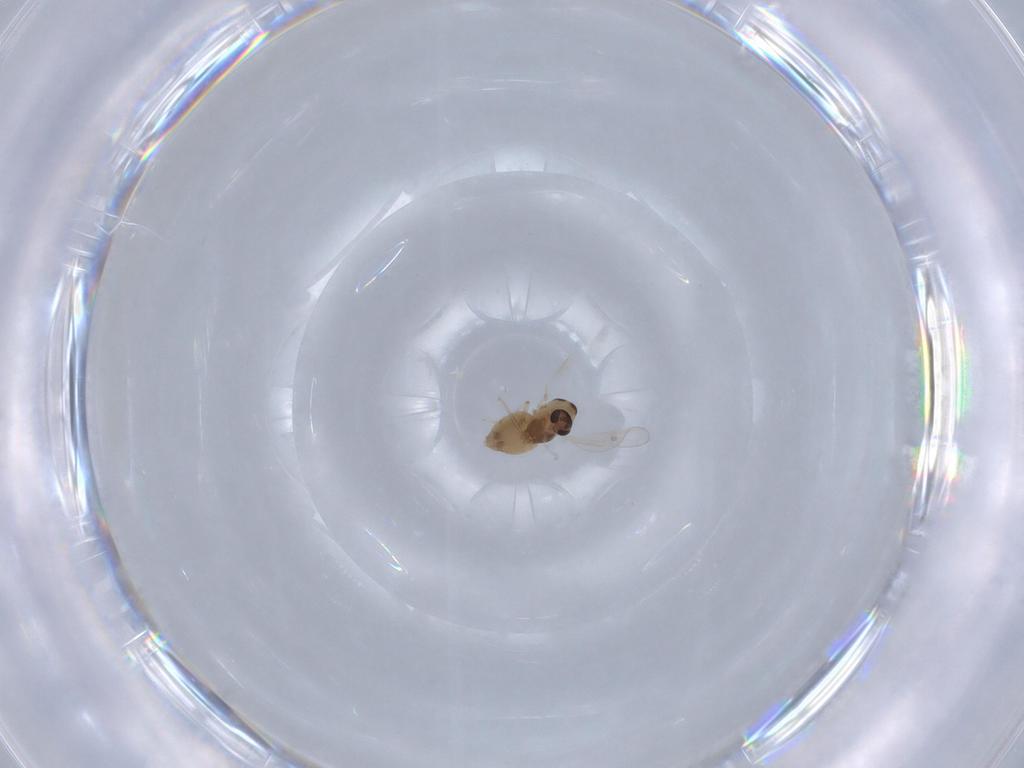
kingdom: Animalia
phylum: Arthropoda
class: Insecta
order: Diptera
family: Chironomidae
